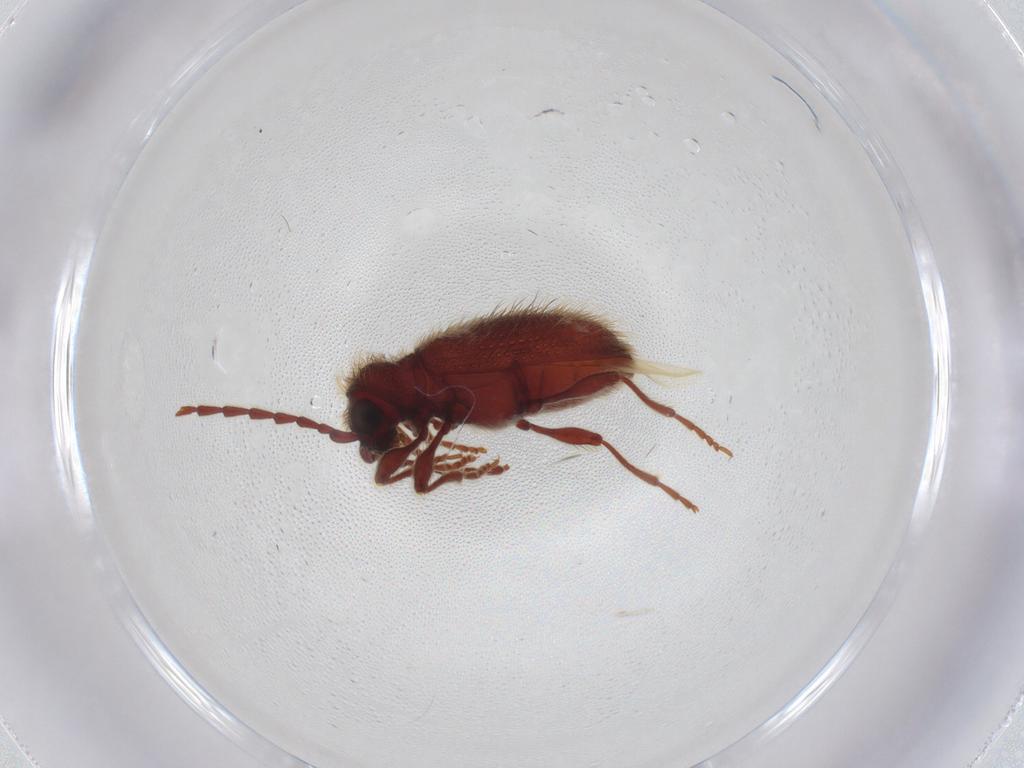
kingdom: Animalia
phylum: Arthropoda
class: Insecta
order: Coleoptera
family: Ptinidae
